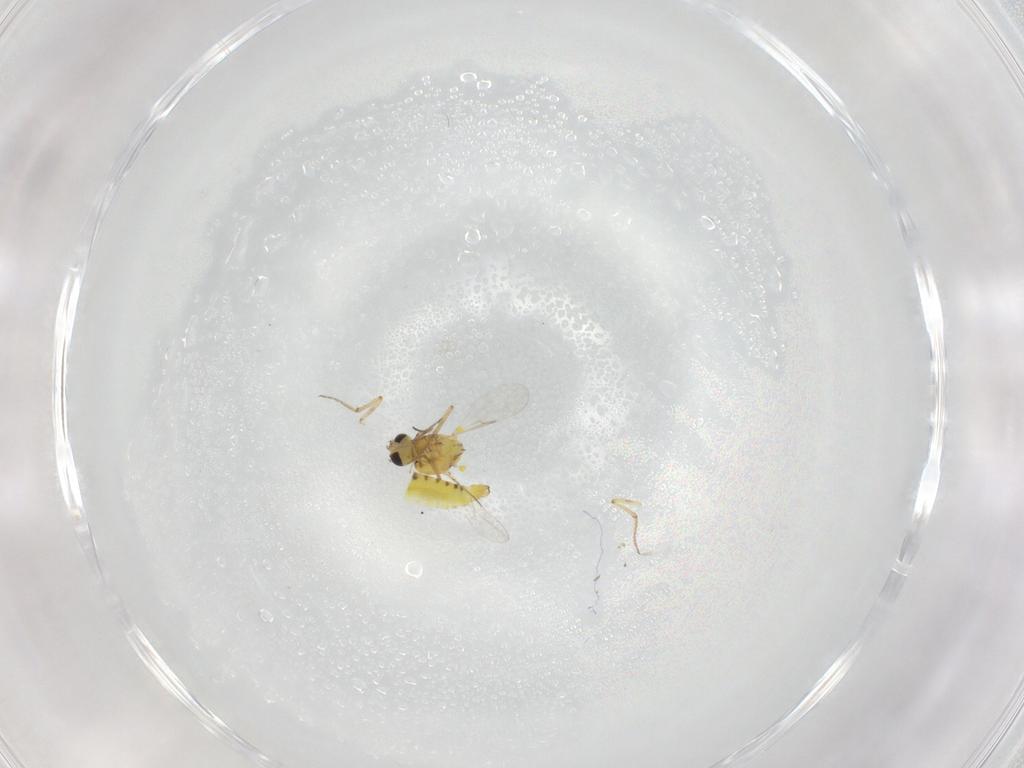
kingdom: Animalia
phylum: Arthropoda
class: Insecta
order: Diptera
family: Ceratopogonidae
